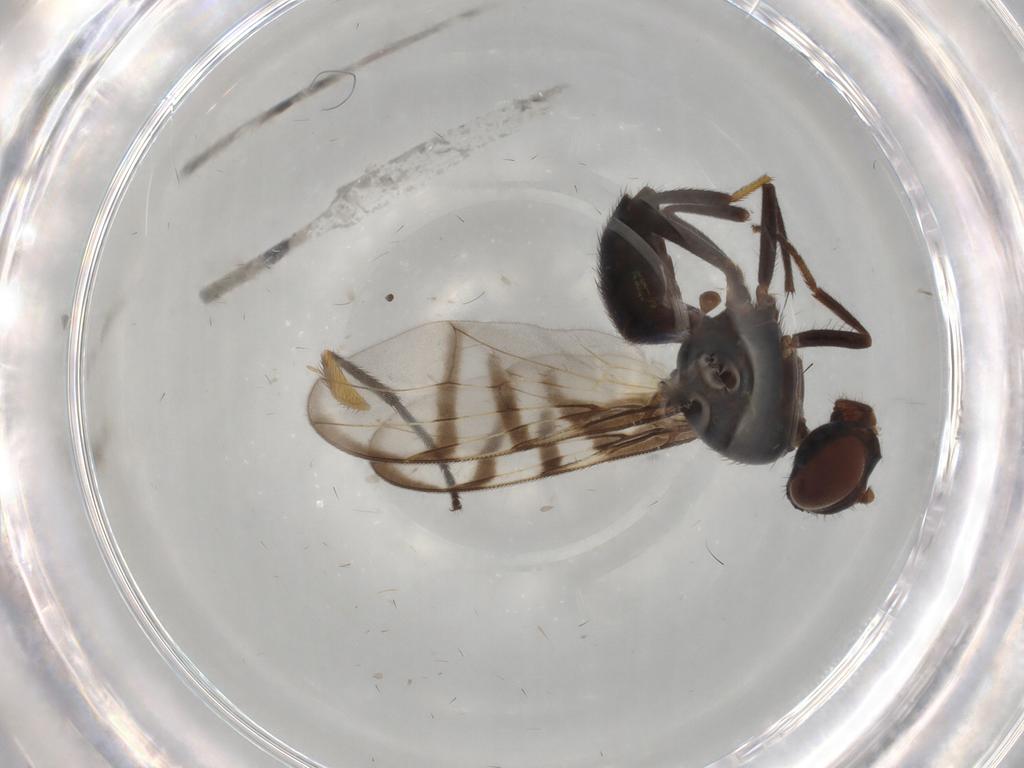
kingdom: Animalia
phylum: Arthropoda
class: Insecta
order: Diptera
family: Platystomatidae
